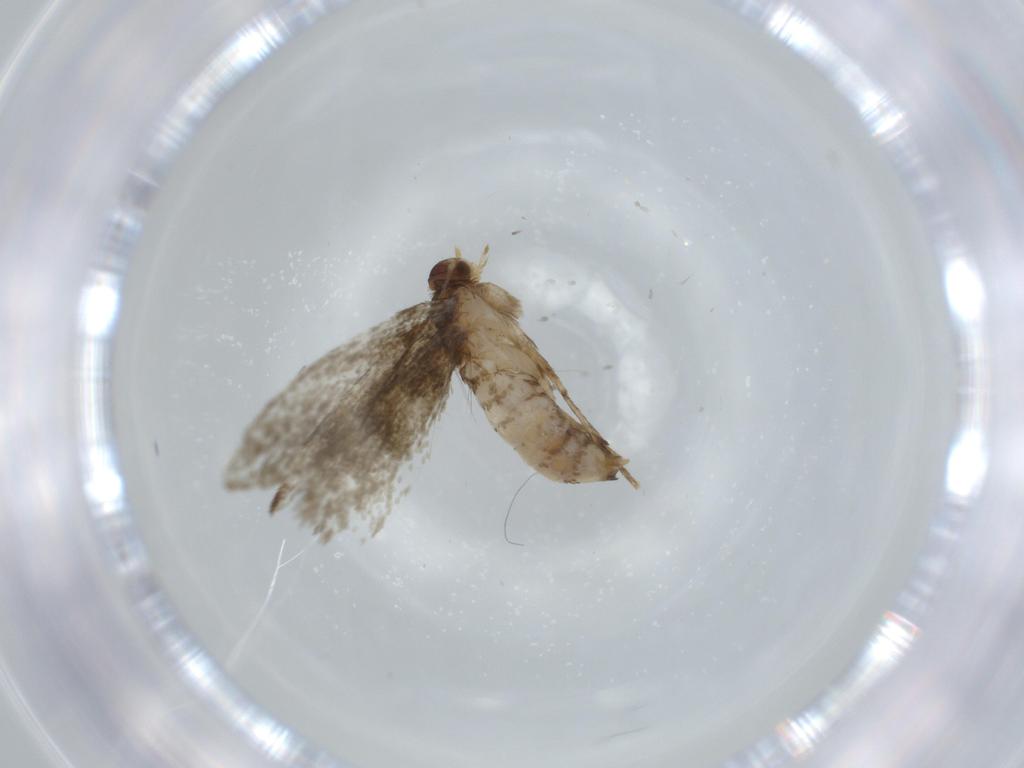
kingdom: Animalia
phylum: Arthropoda
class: Insecta
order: Lepidoptera
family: Tineidae
